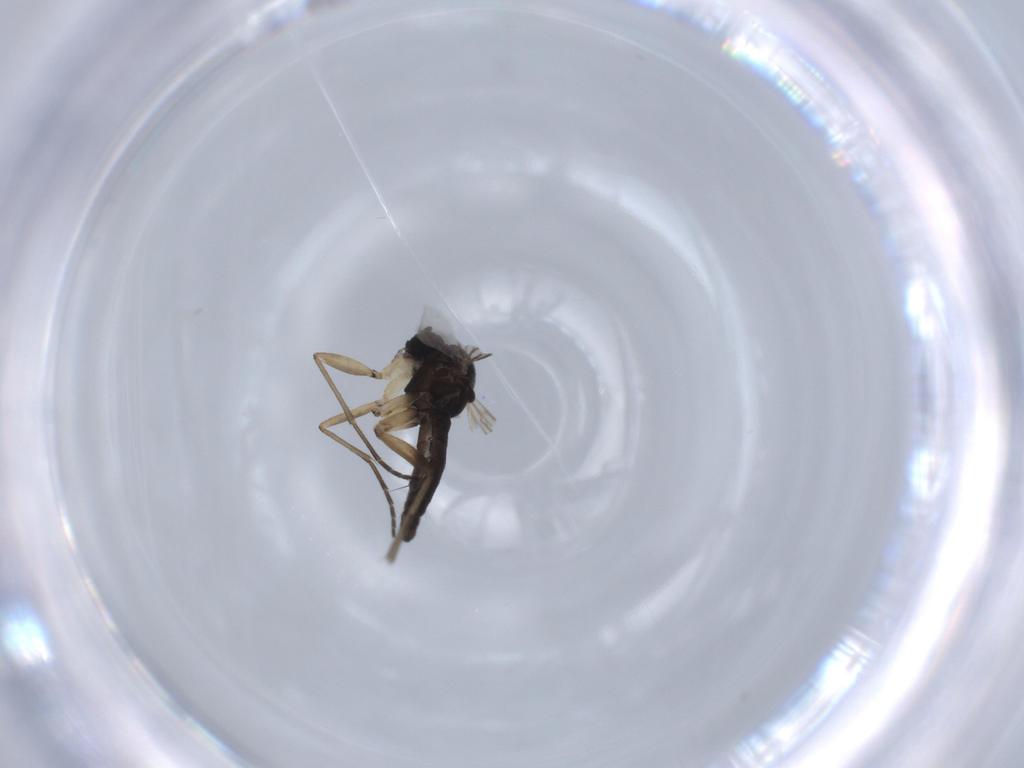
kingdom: Animalia
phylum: Arthropoda
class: Insecta
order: Diptera
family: Sciaridae
